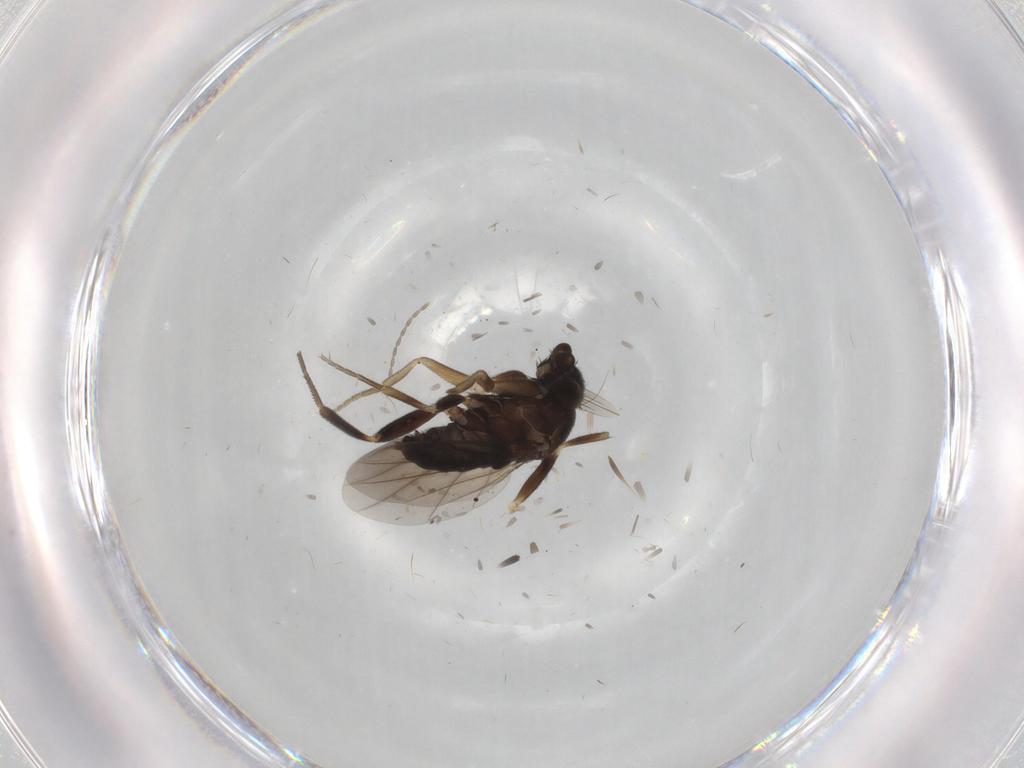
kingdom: Animalia
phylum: Arthropoda
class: Insecta
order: Diptera
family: Cecidomyiidae
